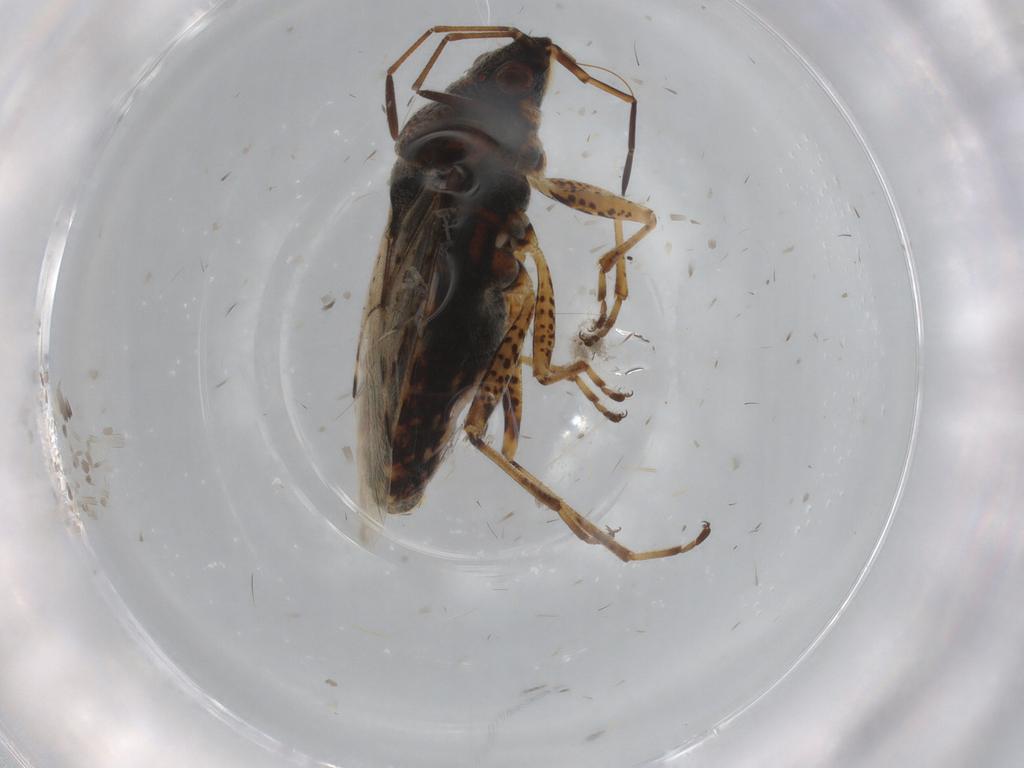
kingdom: Animalia
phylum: Arthropoda
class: Insecta
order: Hemiptera
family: Lygaeidae
